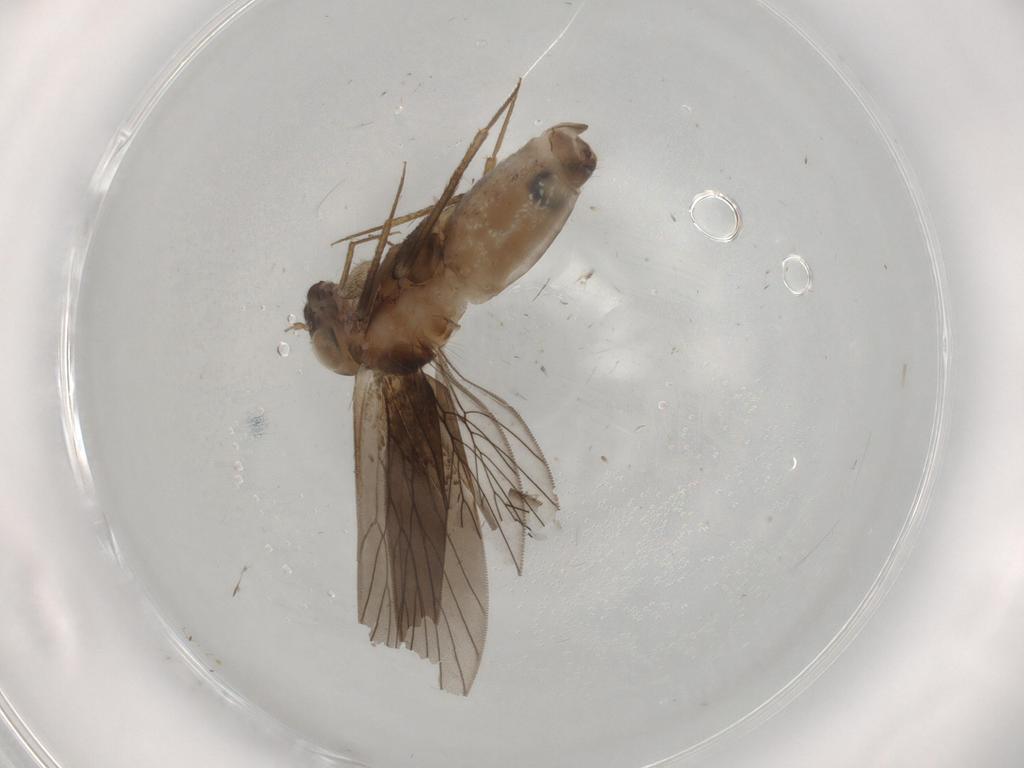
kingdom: Animalia
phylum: Arthropoda
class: Insecta
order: Psocodea
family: Lepidopsocidae
